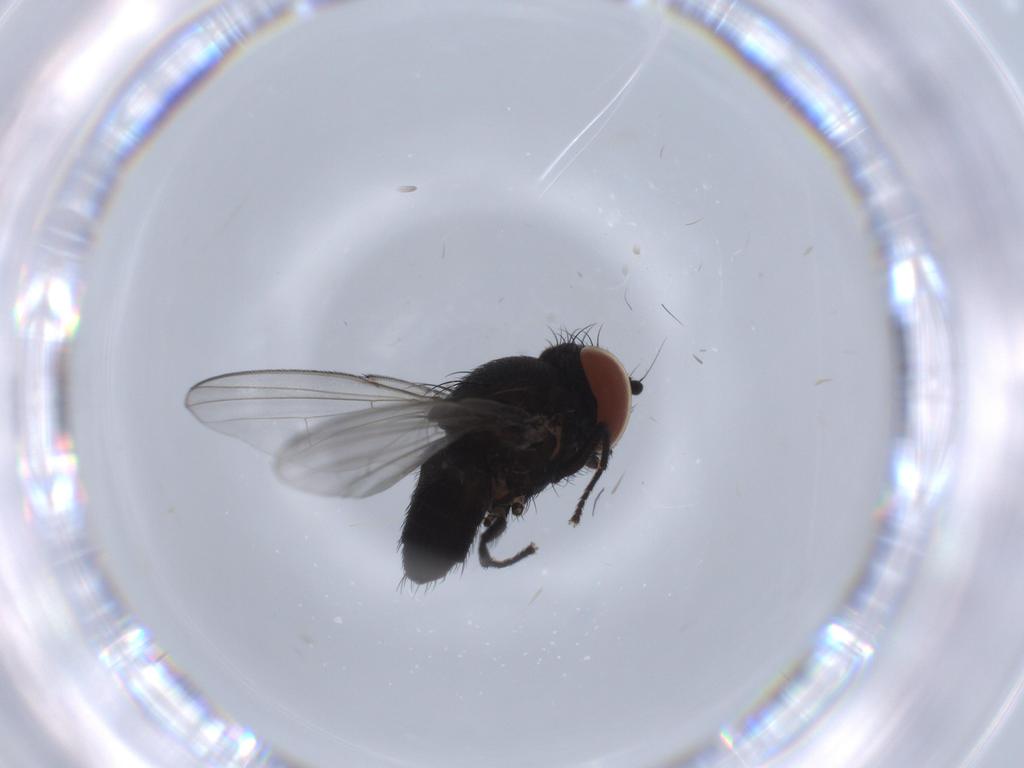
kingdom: Animalia
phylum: Arthropoda
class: Insecta
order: Diptera
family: Milichiidae
